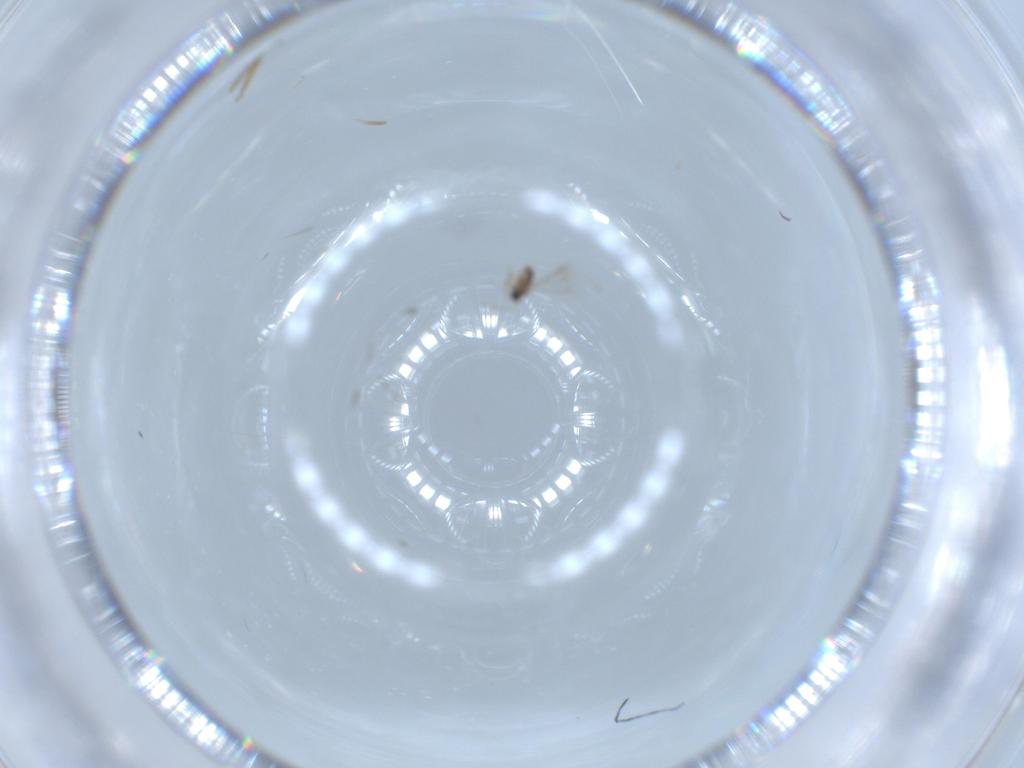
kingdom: Animalia
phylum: Arthropoda
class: Insecta
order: Hymenoptera
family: Mymaridae
